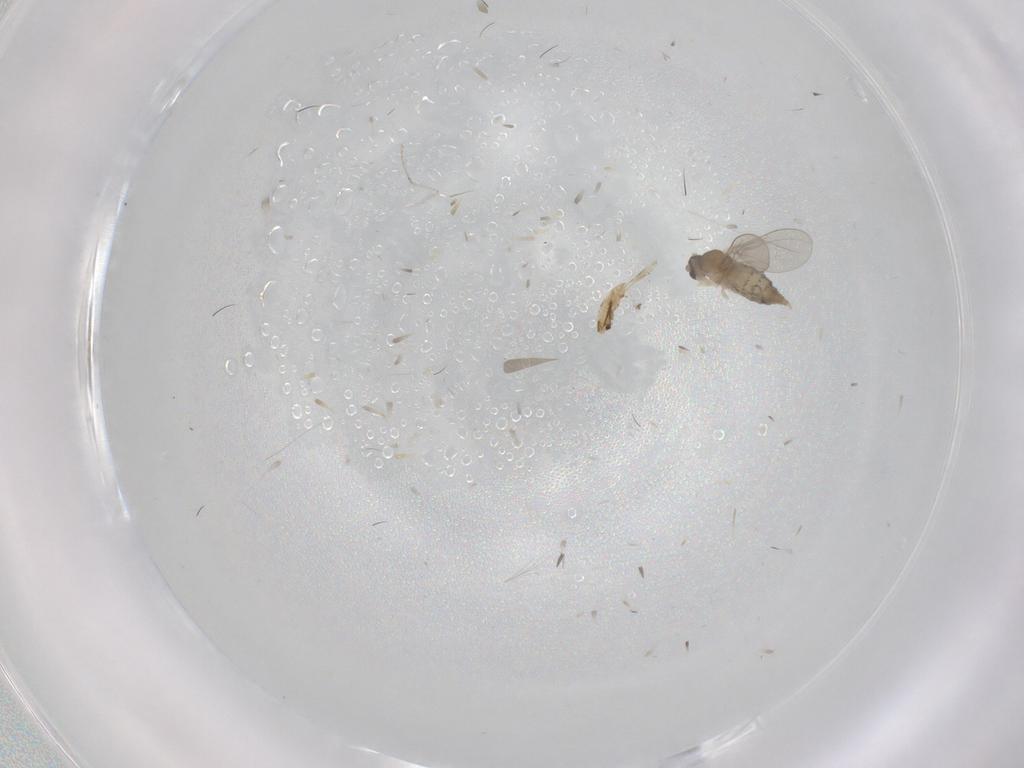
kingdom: Animalia
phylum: Arthropoda
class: Insecta
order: Diptera
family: Cecidomyiidae
